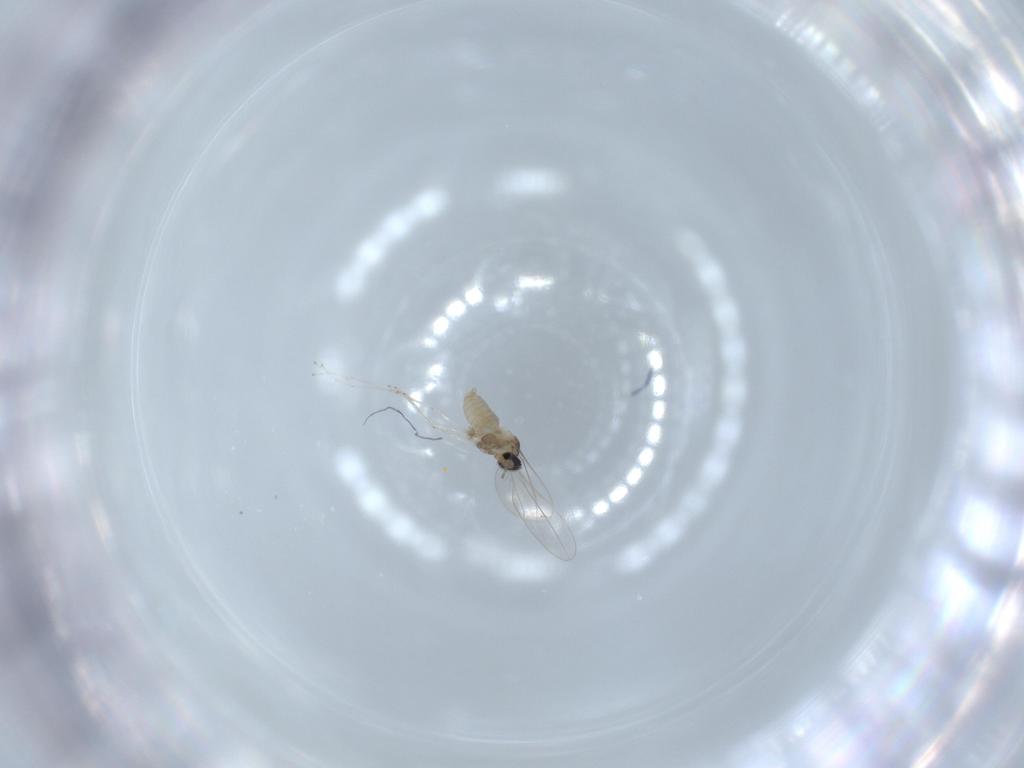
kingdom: Animalia
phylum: Arthropoda
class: Insecta
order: Diptera
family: Cecidomyiidae
